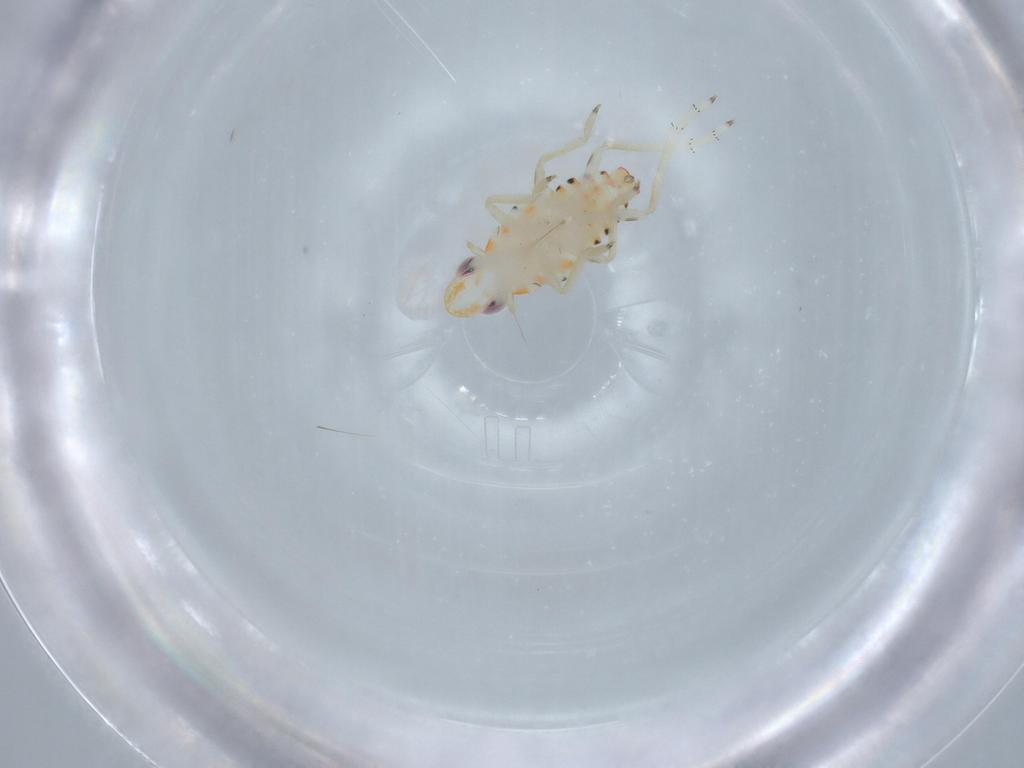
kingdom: Animalia
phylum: Arthropoda
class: Insecta
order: Hemiptera
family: Tropiduchidae
